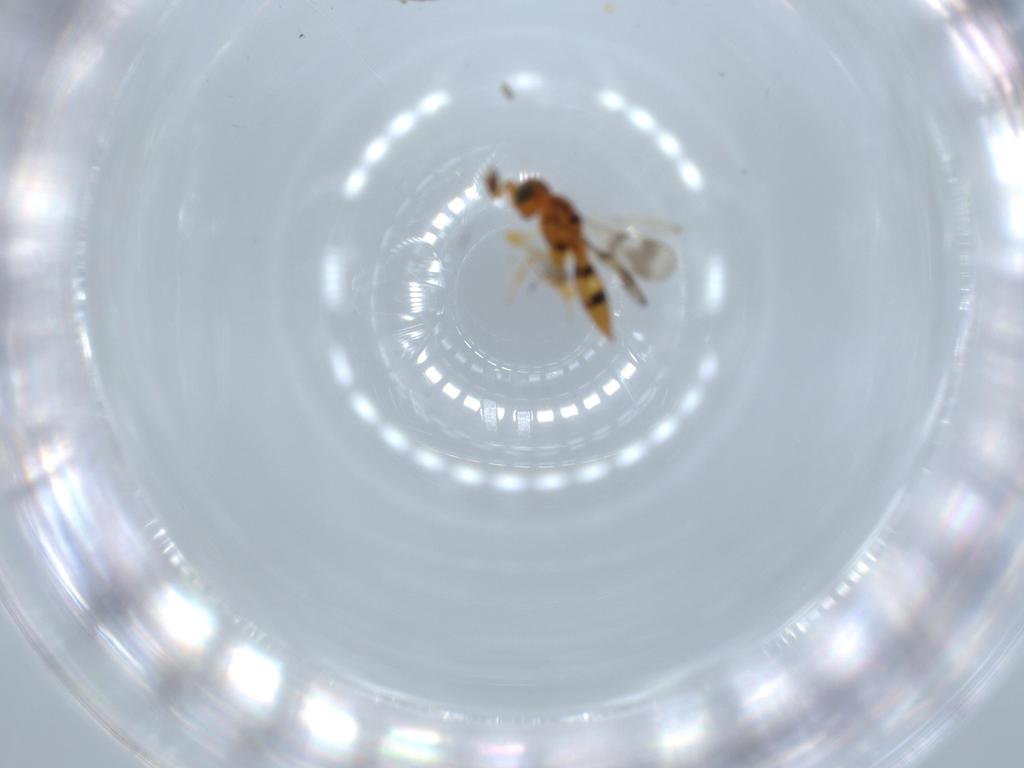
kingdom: Animalia
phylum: Arthropoda
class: Insecta
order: Hymenoptera
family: Scelionidae
